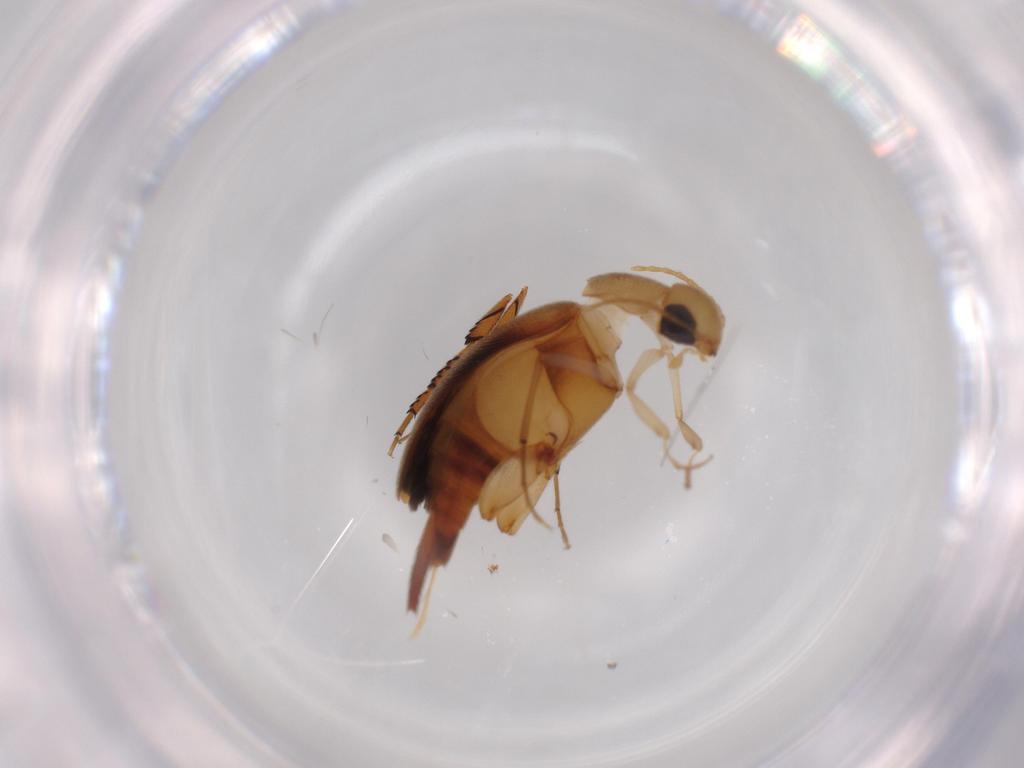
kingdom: Animalia
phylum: Arthropoda
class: Insecta
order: Coleoptera
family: Mordellidae
